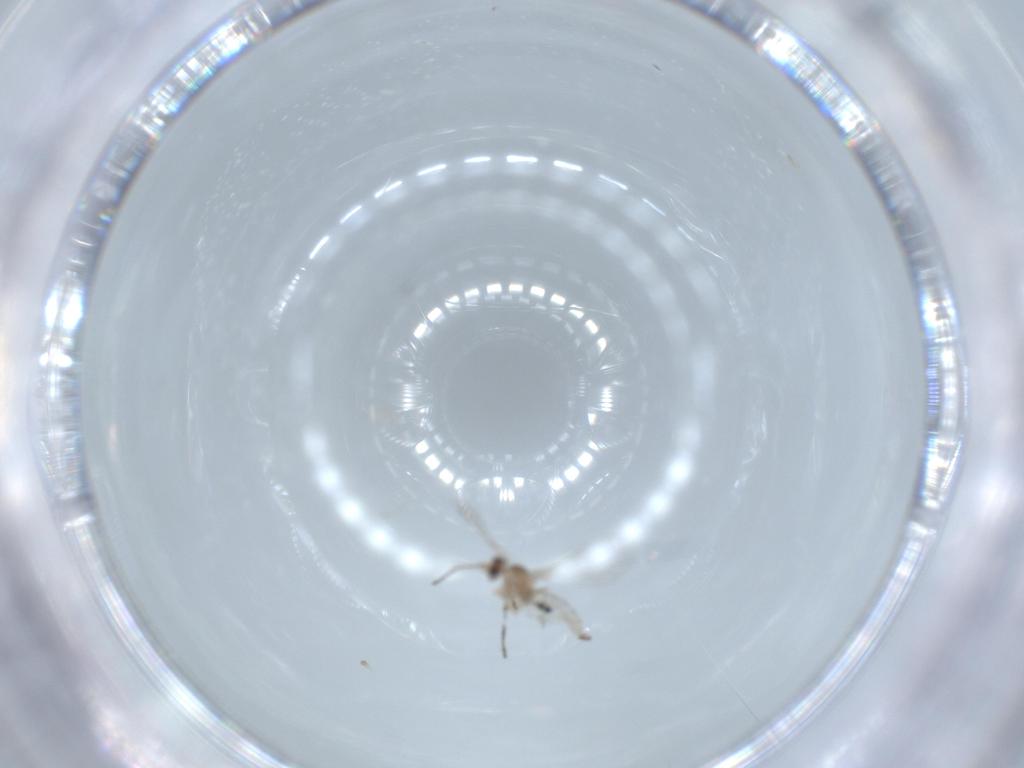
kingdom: Animalia
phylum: Arthropoda
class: Insecta
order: Diptera
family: Cecidomyiidae
